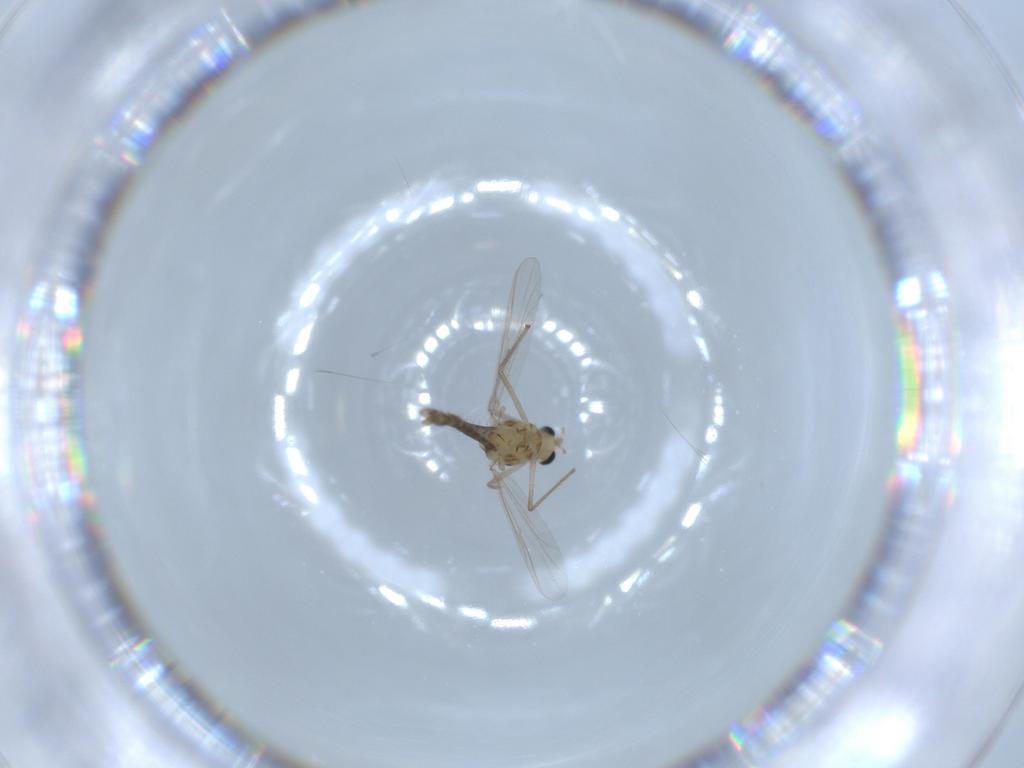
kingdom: Animalia
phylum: Arthropoda
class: Insecta
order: Diptera
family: Chironomidae
